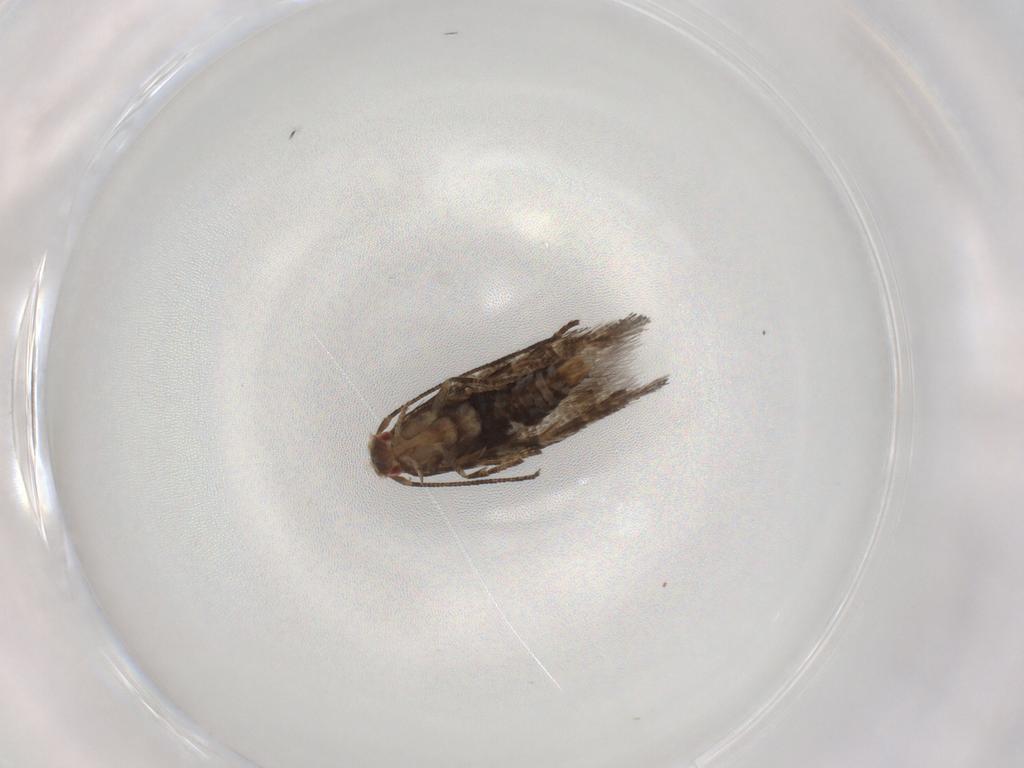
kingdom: Animalia
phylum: Arthropoda
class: Insecta
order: Lepidoptera
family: Momphidae
